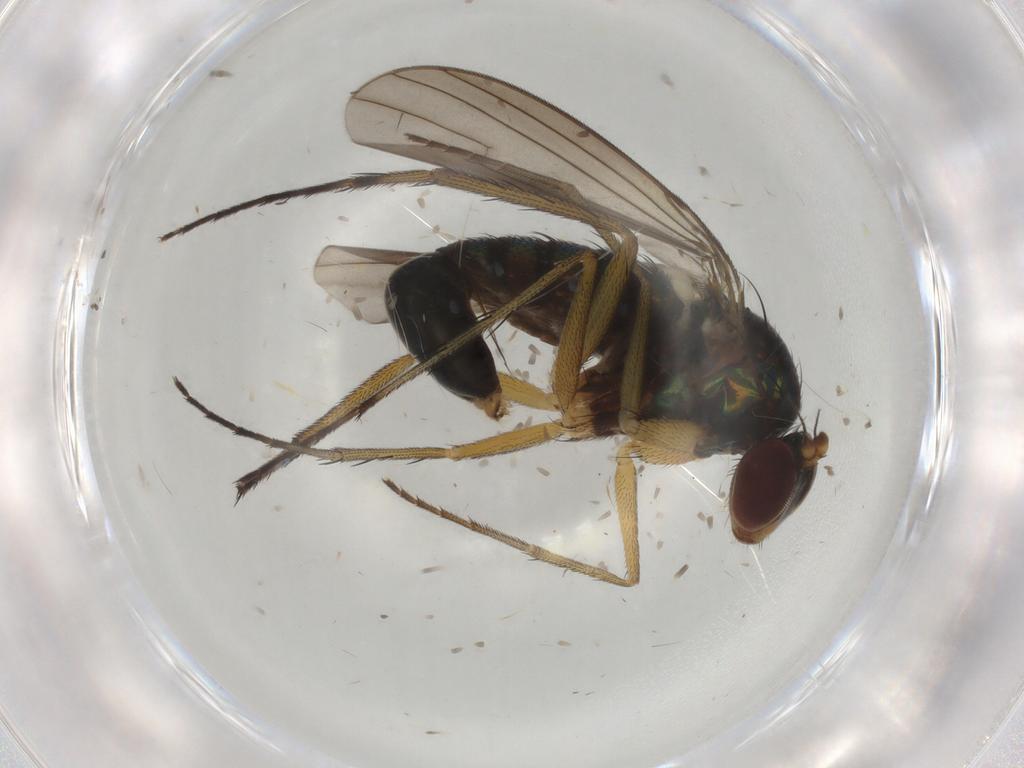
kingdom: Animalia
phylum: Arthropoda
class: Insecta
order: Diptera
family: Dolichopodidae
